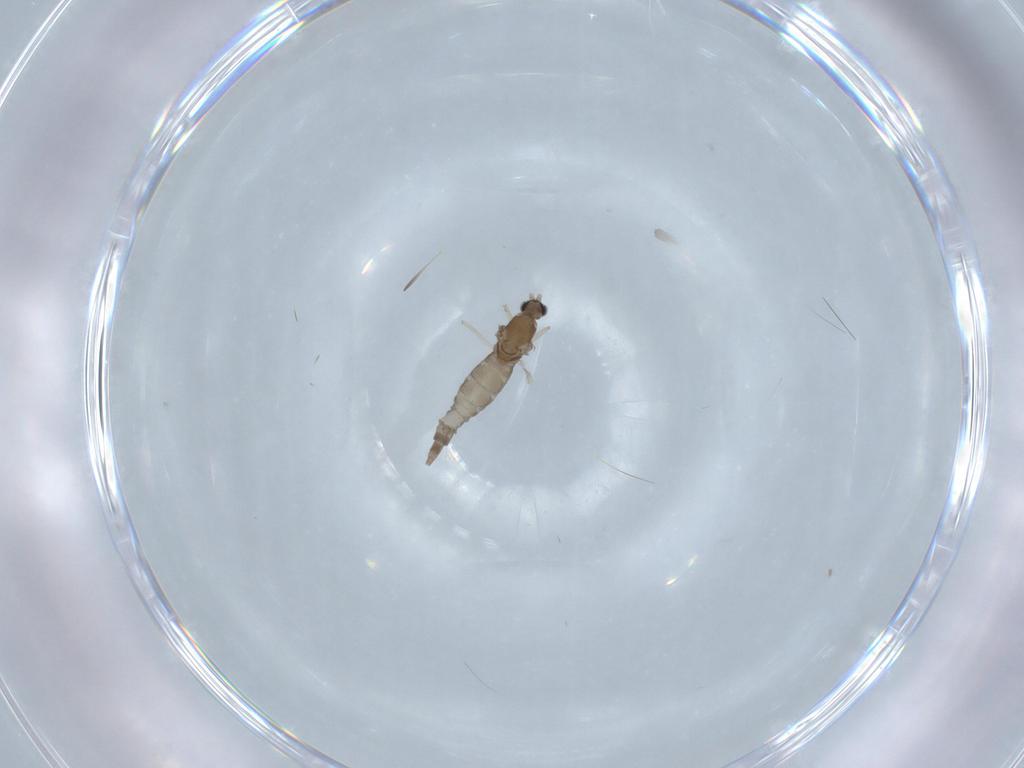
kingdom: Animalia
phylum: Arthropoda
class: Insecta
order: Diptera
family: Cecidomyiidae
